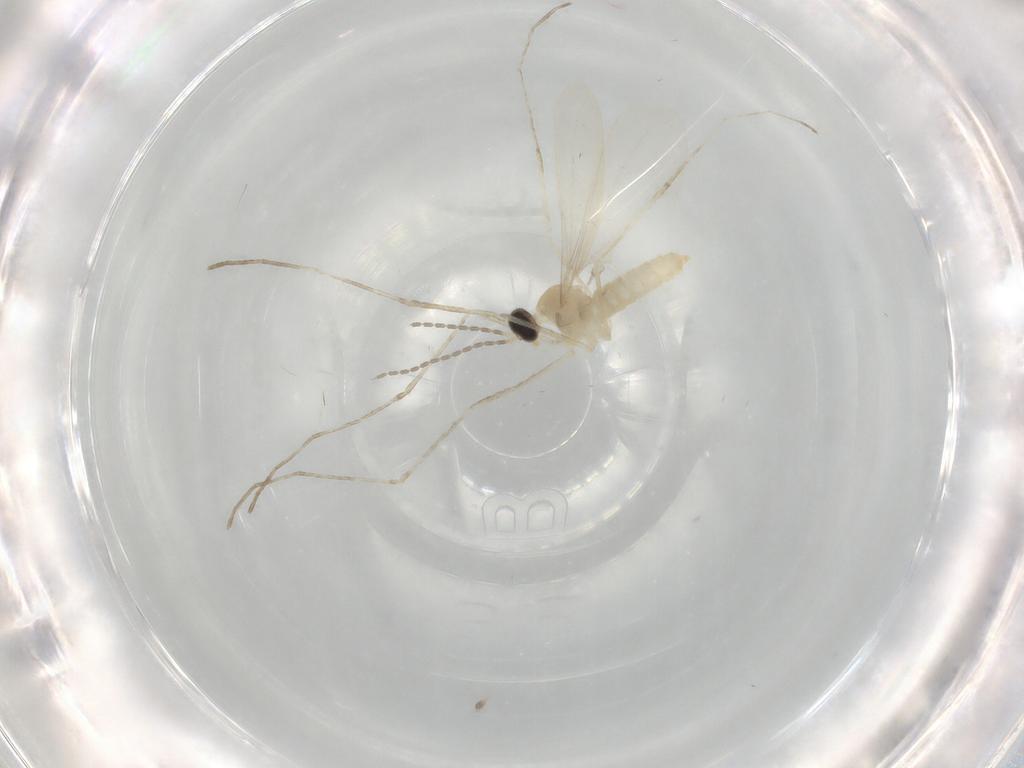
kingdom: Animalia
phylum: Arthropoda
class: Insecta
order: Diptera
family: Cecidomyiidae
